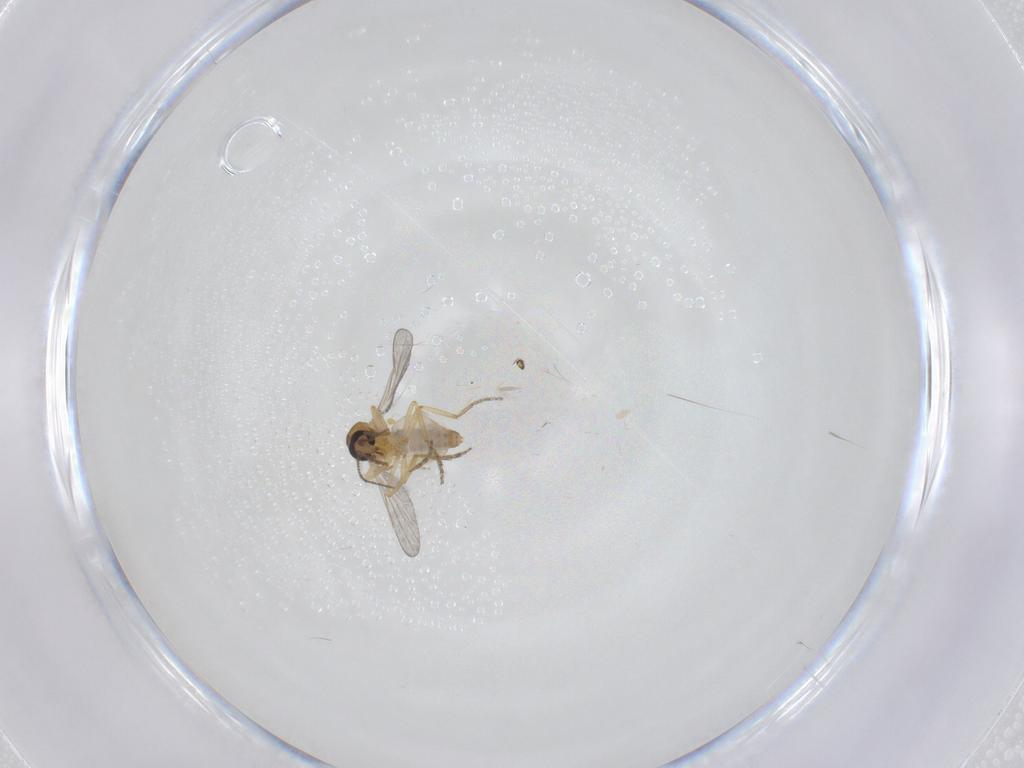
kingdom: Animalia
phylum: Arthropoda
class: Insecta
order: Diptera
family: Ceratopogonidae
